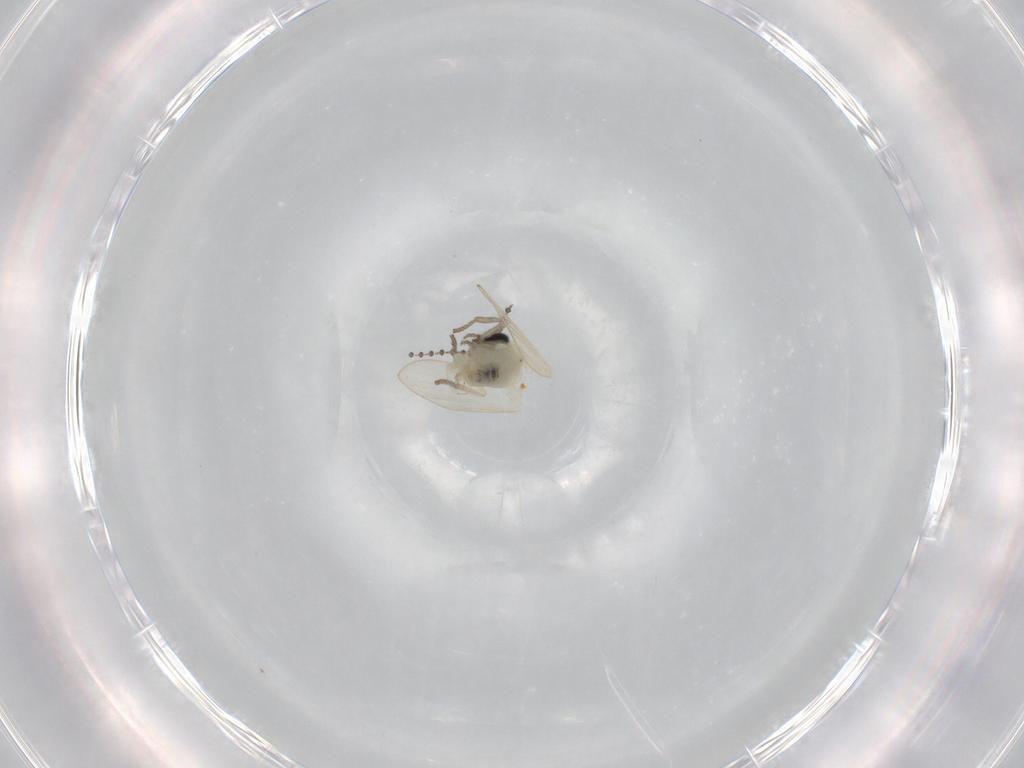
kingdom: Animalia
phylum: Arthropoda
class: Insecta
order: Diptera
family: Psychodidae
